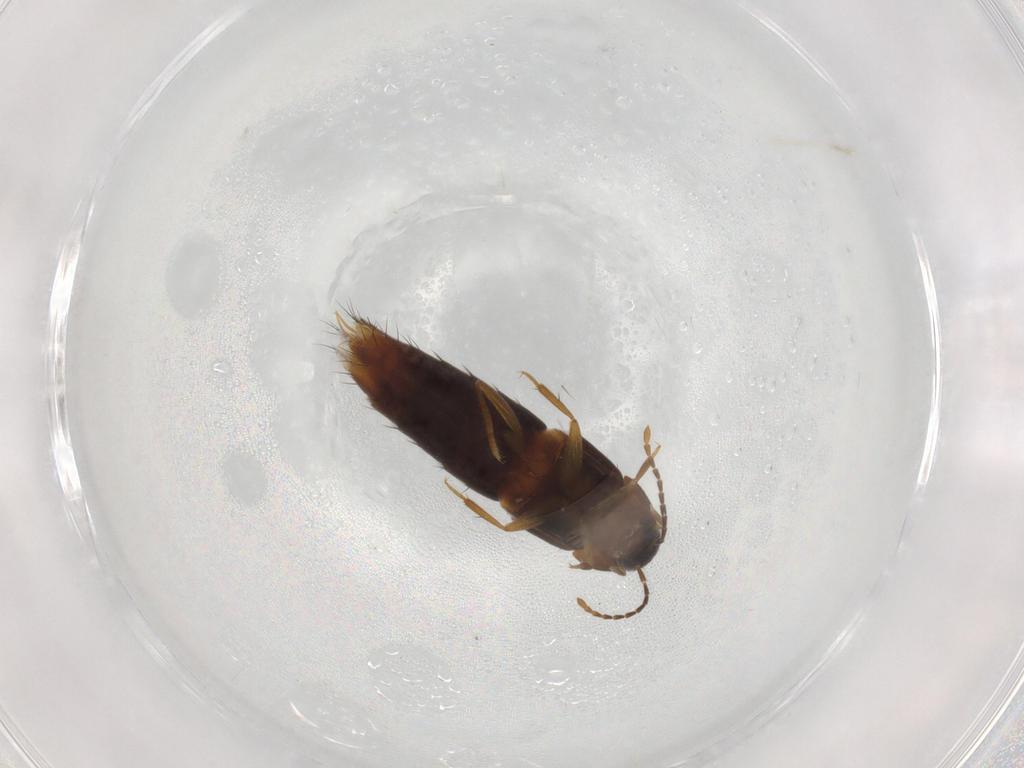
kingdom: Animalia
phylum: Arthropoda
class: Insecta
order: Coleoptera
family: Staphylinidae
